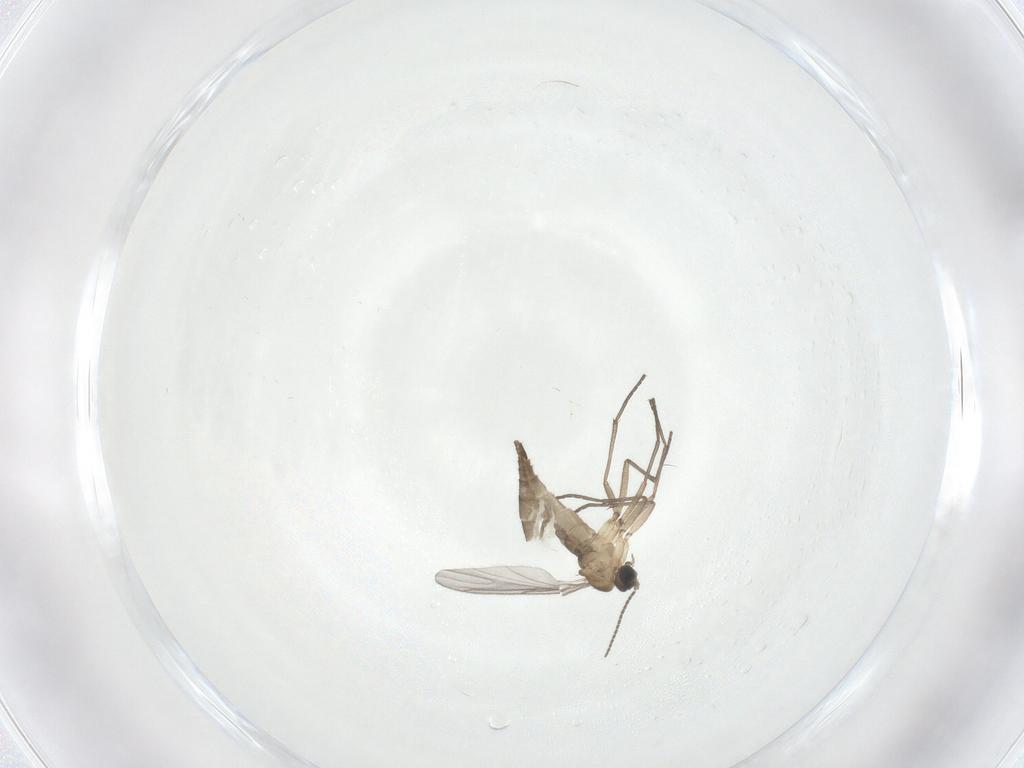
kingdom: Animalia
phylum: Arthropoda
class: Insecta
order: Diptera
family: Sciaridae
